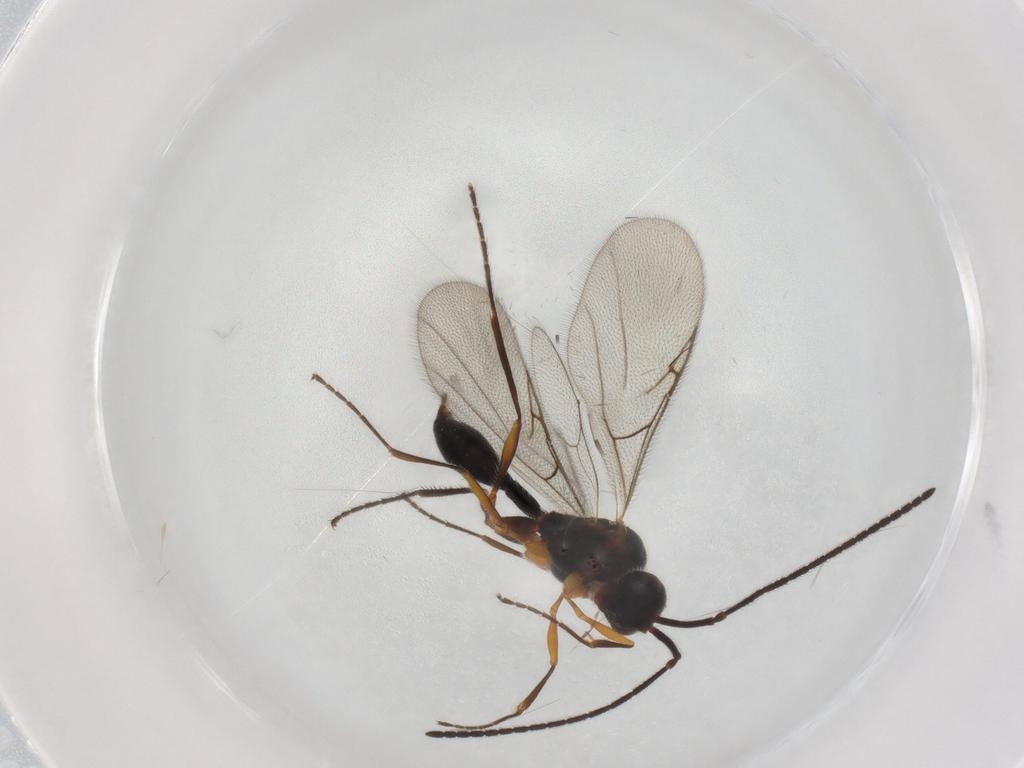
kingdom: Animalia
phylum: Arthropoda
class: Insecta
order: Hymenoptera
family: Diapriidae
